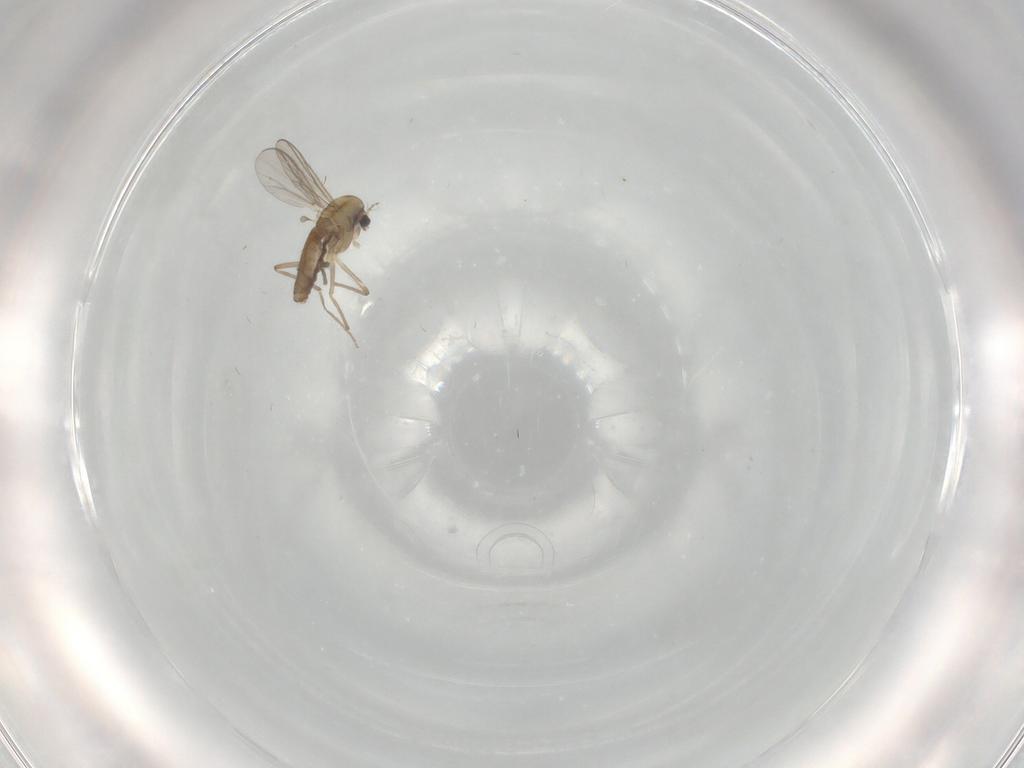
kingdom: Animalia
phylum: Arthropoda
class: Insecta
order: Diptera
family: Chironomidae
